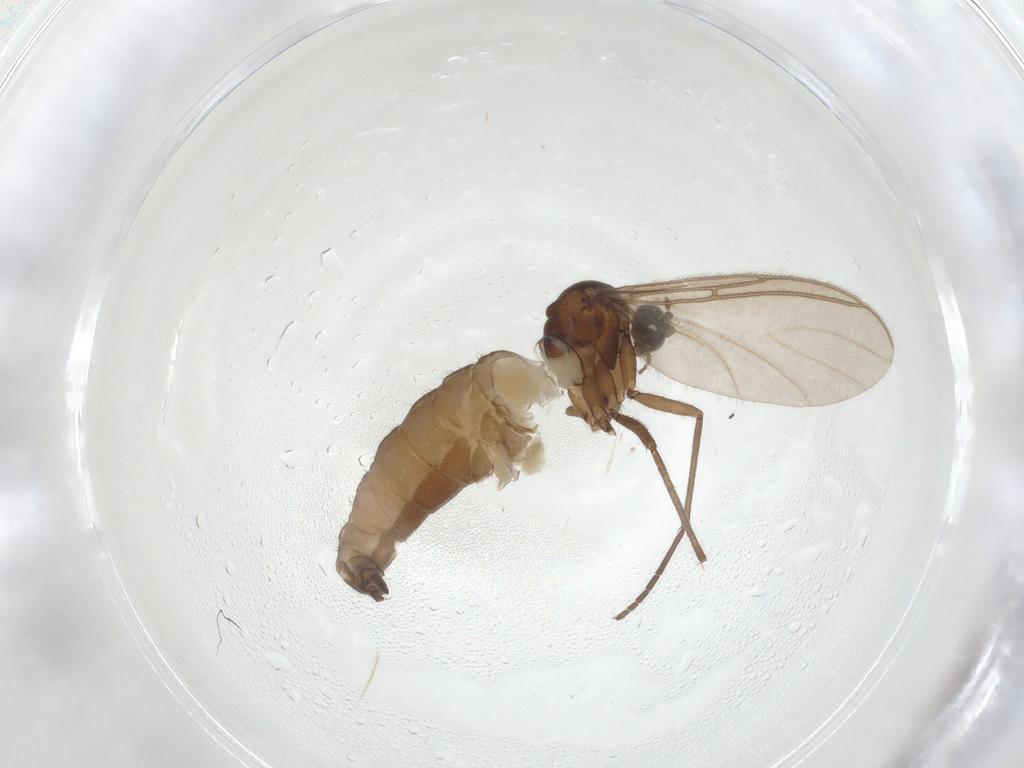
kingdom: Animalia
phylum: Arthropoda
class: Insecta
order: Diptera
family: Sciaridae
